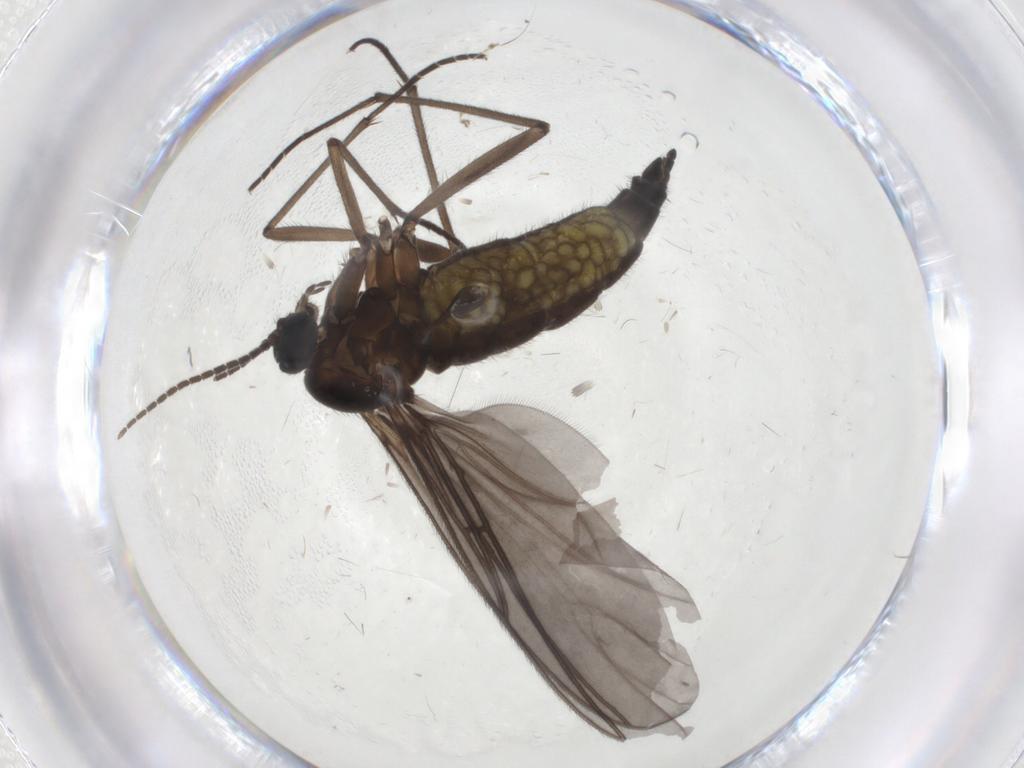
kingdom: Animalia
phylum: Arthropoda
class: Insecta
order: Diptera
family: Sciaridae
